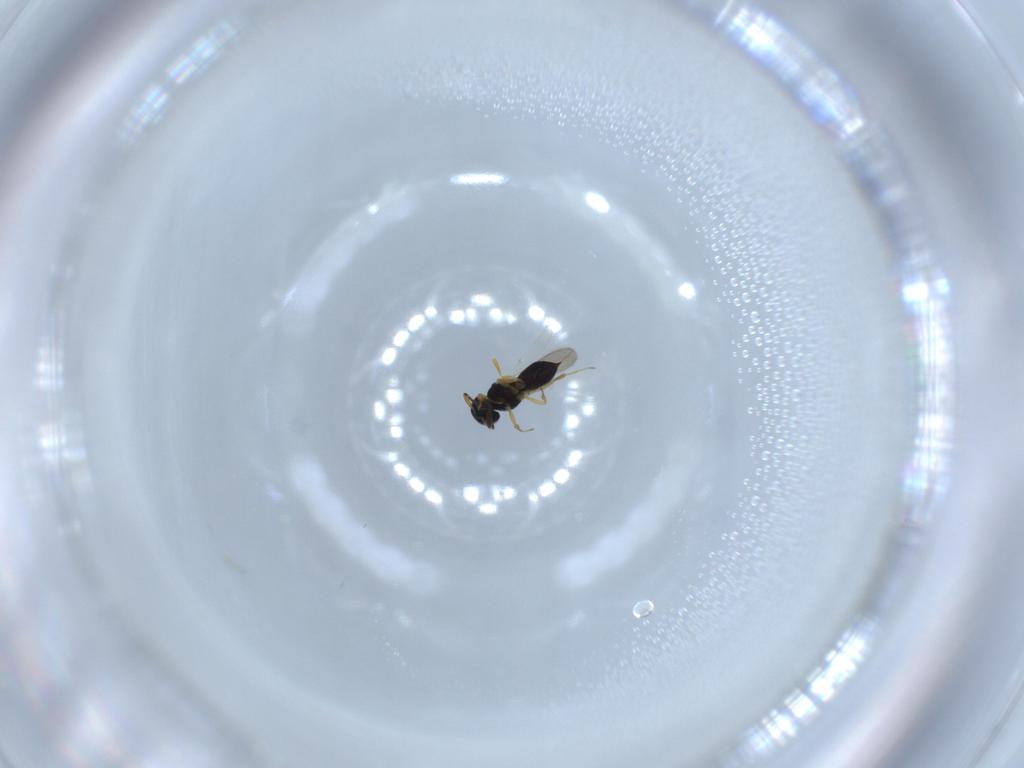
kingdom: Animalia
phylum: Arthropoda
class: Insecta
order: Hymenoptera
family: Scelionidae
